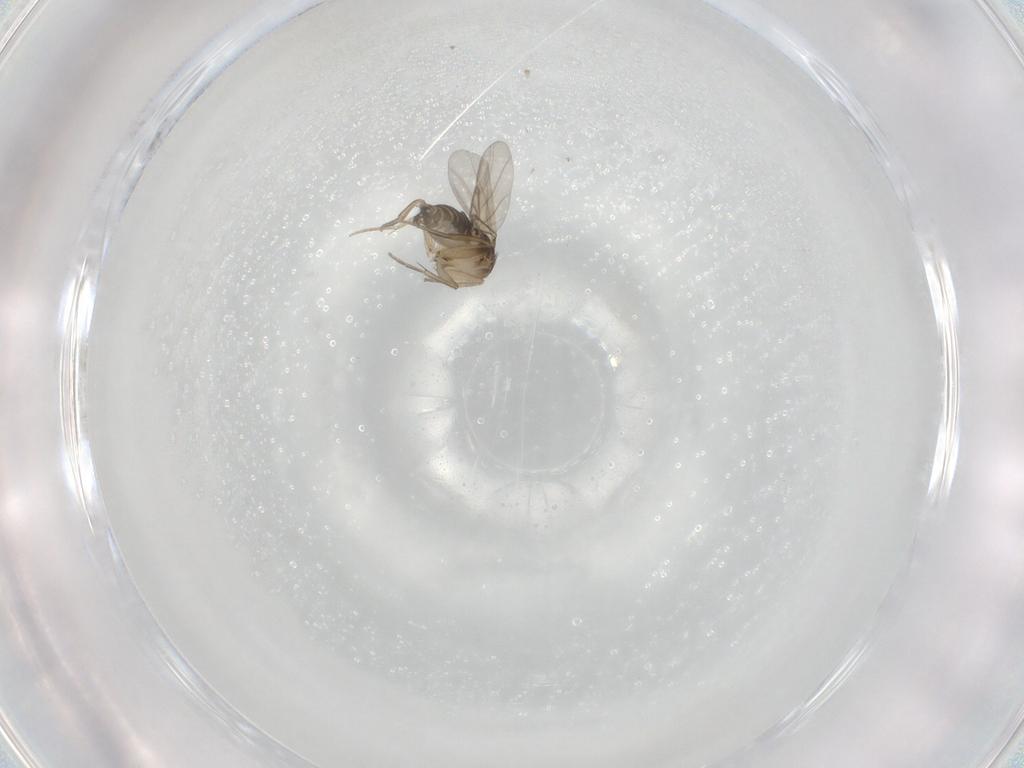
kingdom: Animalia
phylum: Arthropoda
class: Insecta
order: Diptera
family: Phoridae
